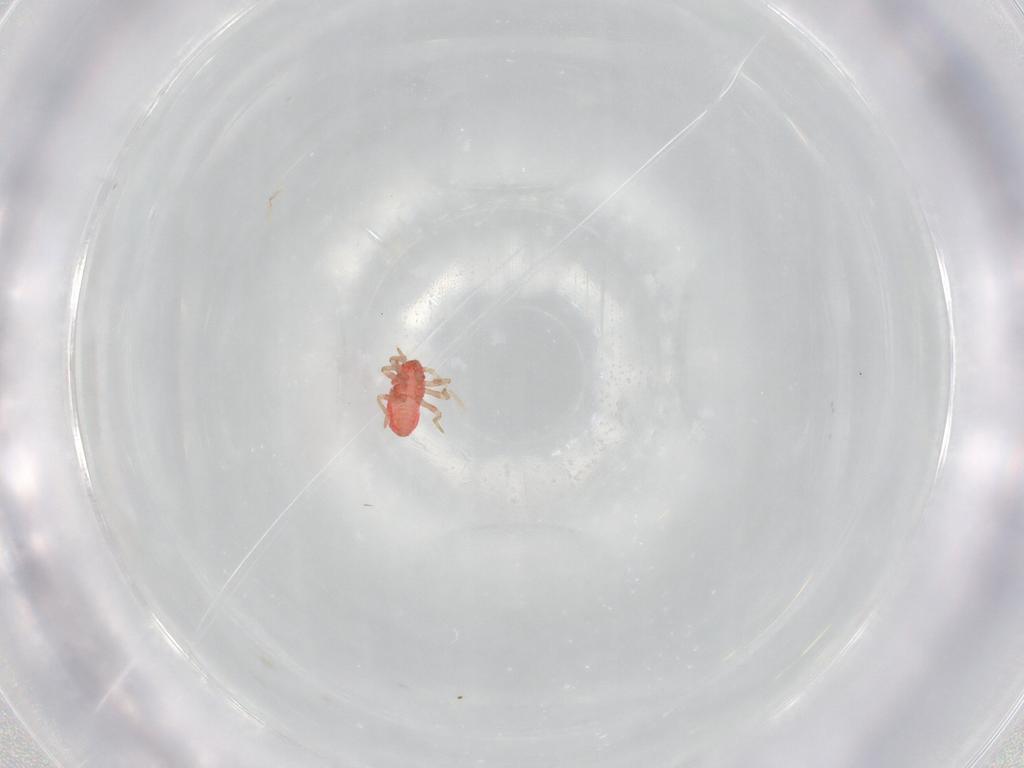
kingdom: Animalia
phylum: Arthropoda
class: Insecta
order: Hemiptera
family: Schizopteridae
